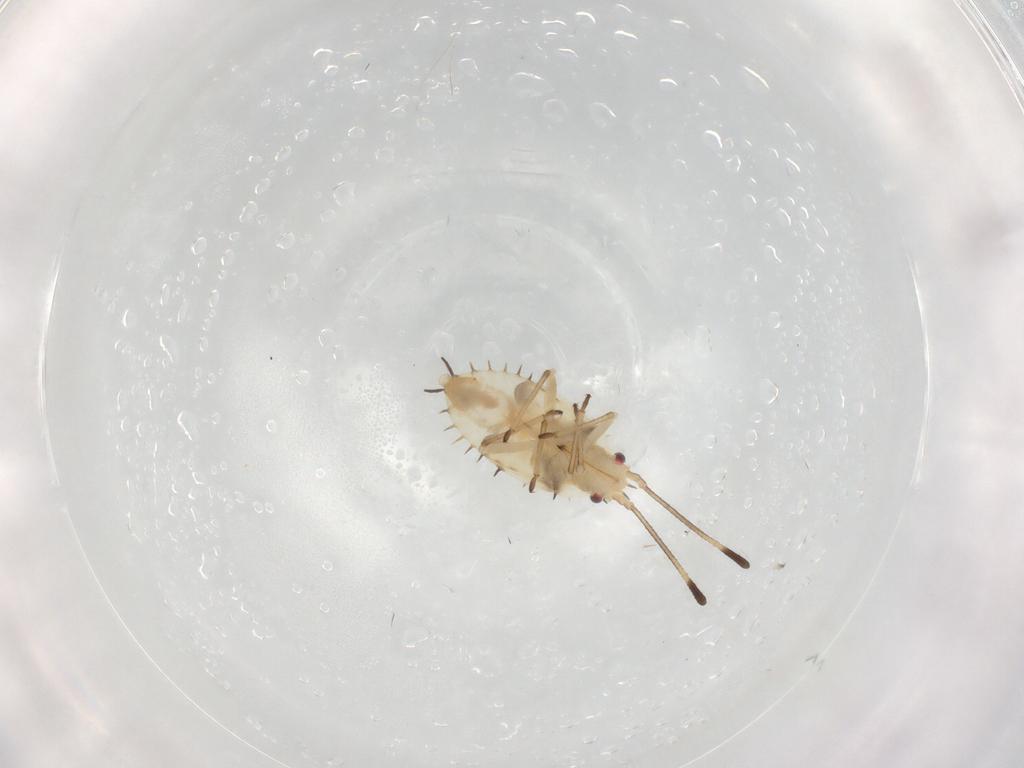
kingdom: Animalia
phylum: Arthropoda
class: Insecta
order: Hemiptera
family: Tingidae
